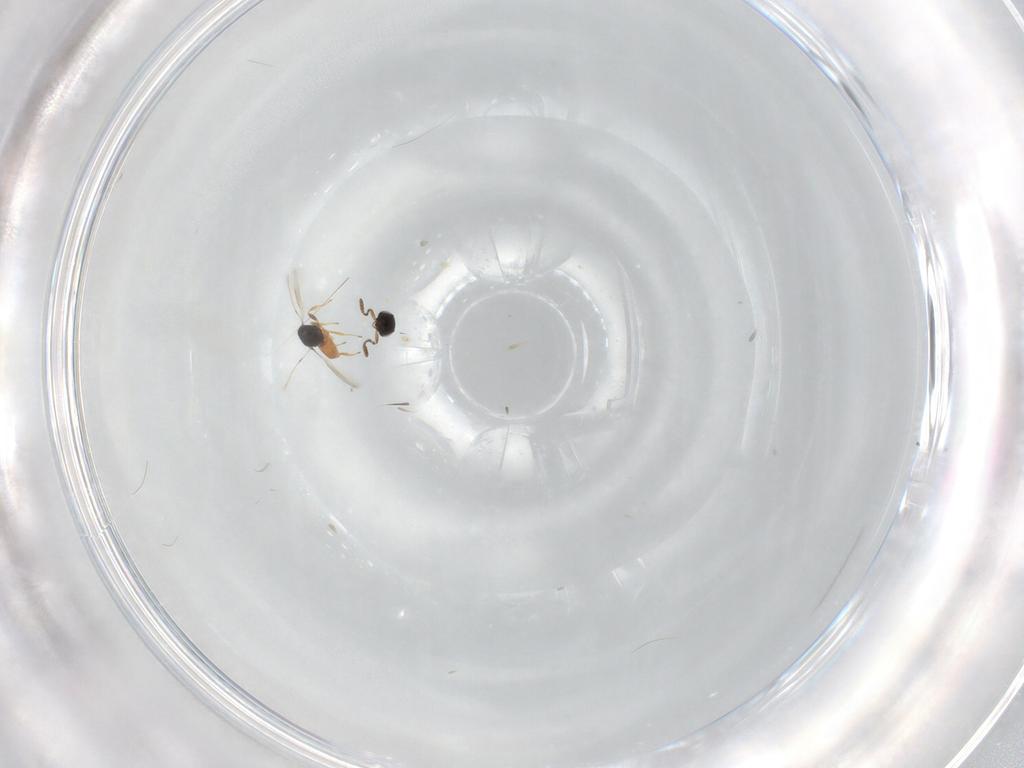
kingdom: Animalia
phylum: Arthropoda
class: Insecta
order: Hymenoptera
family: Scelionidae
